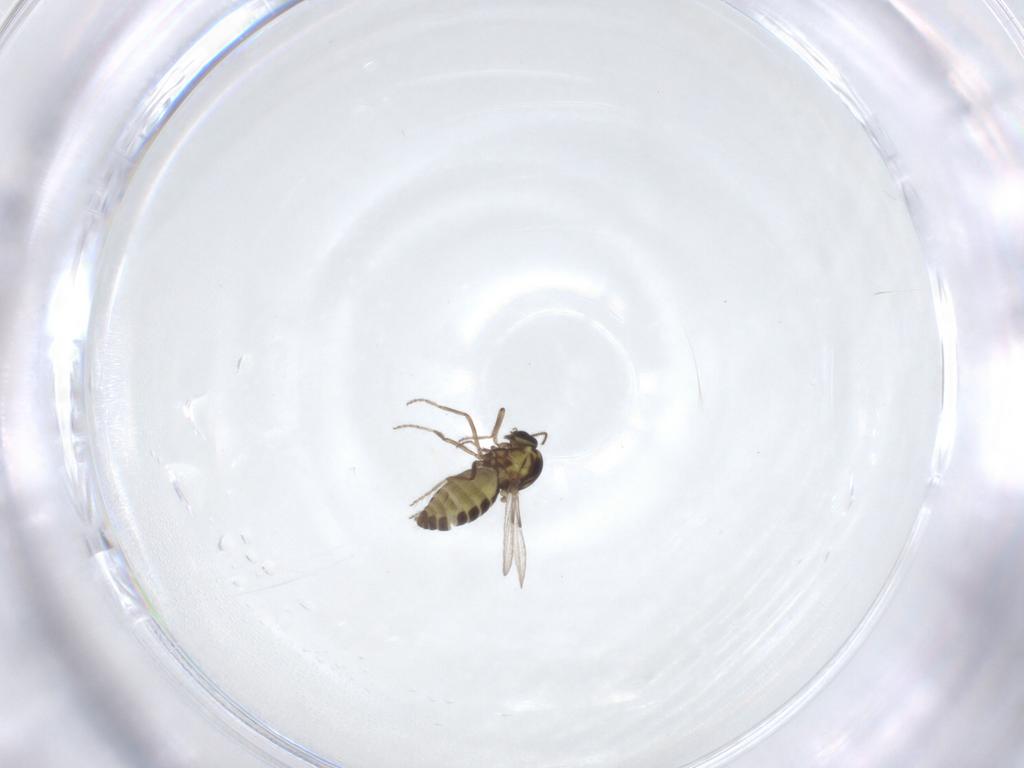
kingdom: Animalia
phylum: Arthropoda
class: Insecta
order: Diptera
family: Ceratopogonidae
